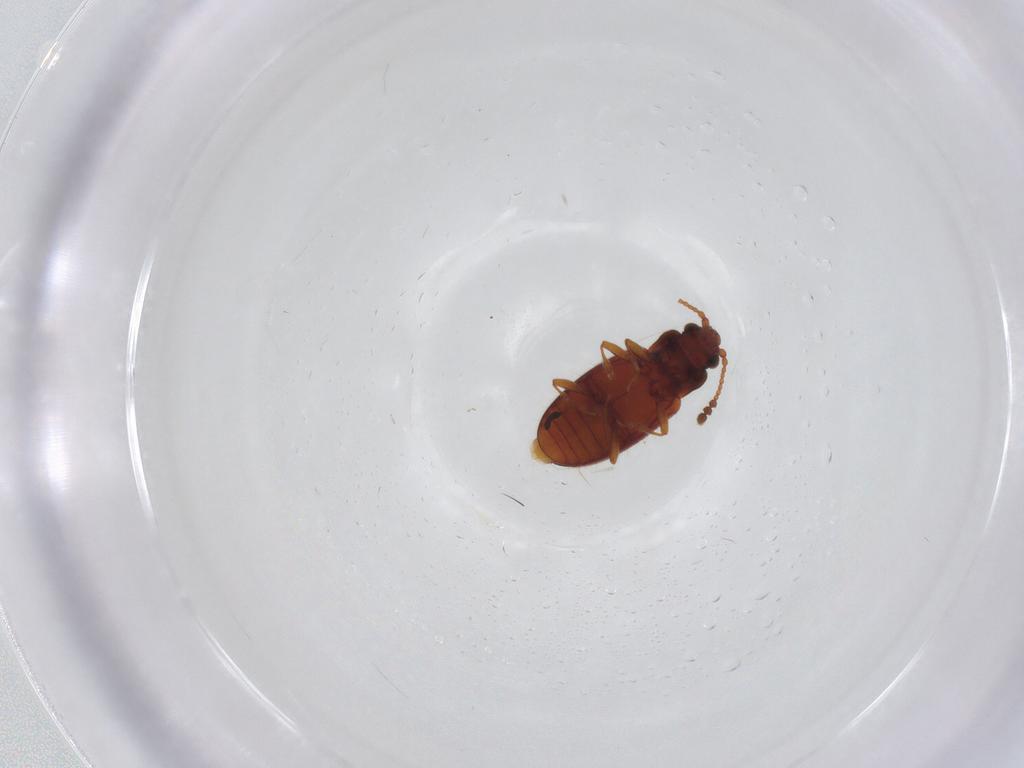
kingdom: Animalia
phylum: Arthropoda
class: Insecta
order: Coleoptera
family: Cryptophagidae
